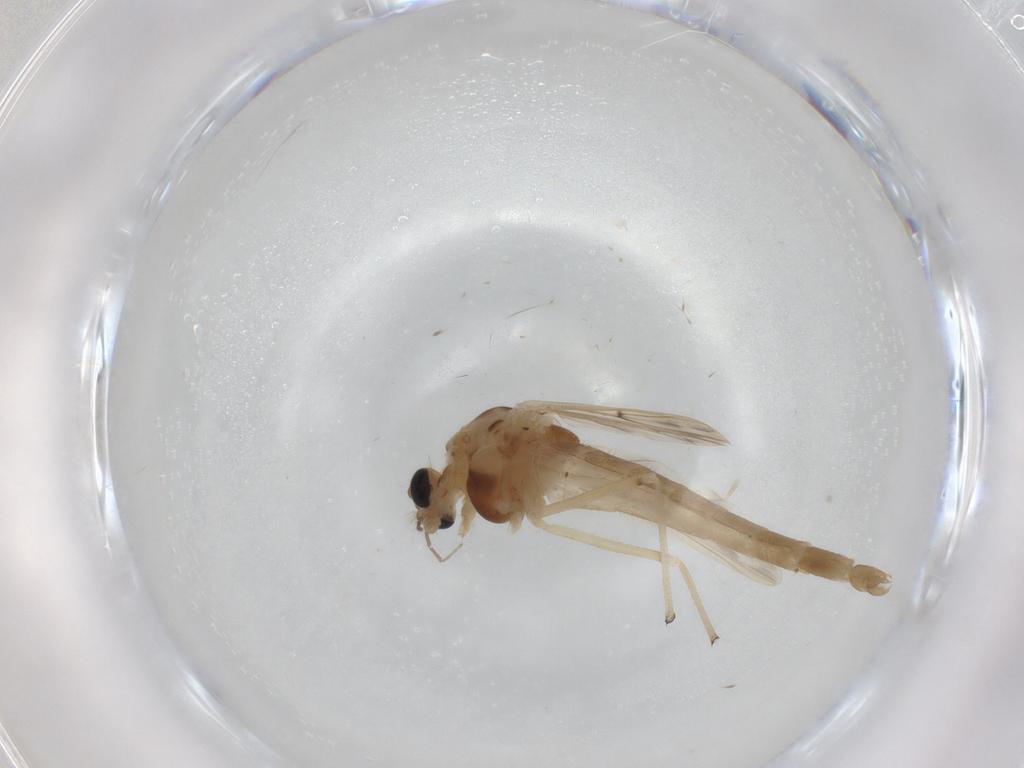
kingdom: Animalia
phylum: Arthropoda
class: Insecta
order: Diptera
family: Chironomidae
